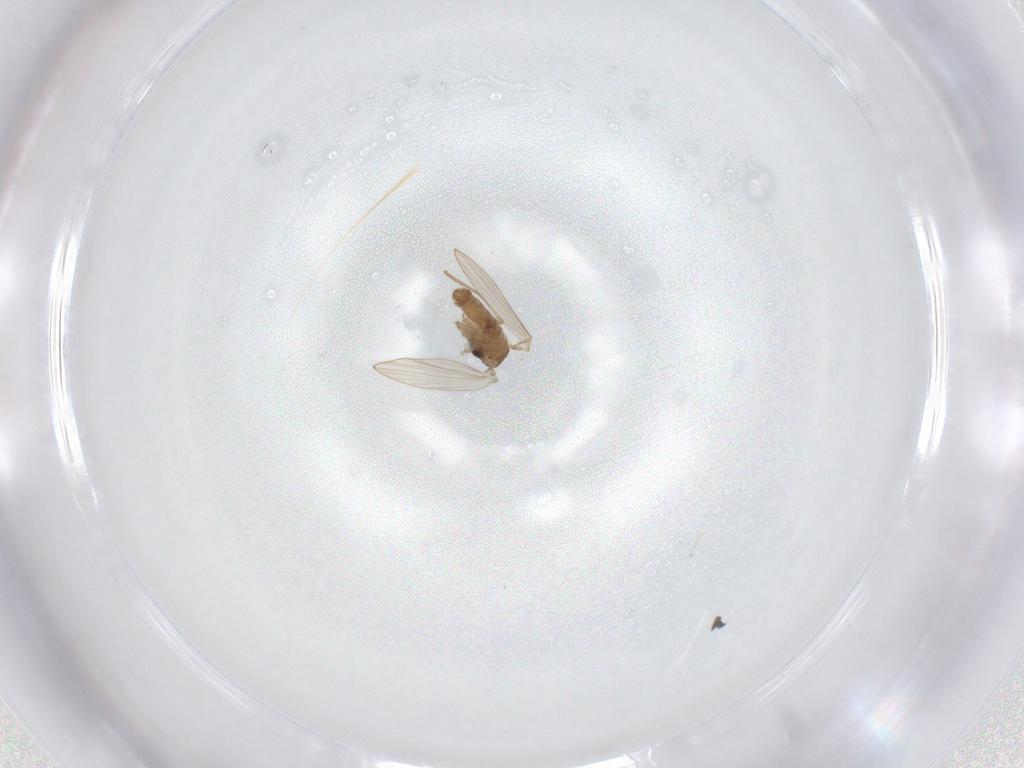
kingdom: Animalia
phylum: Arthropoda
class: Insecta
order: Diptera
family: Psychodidae
